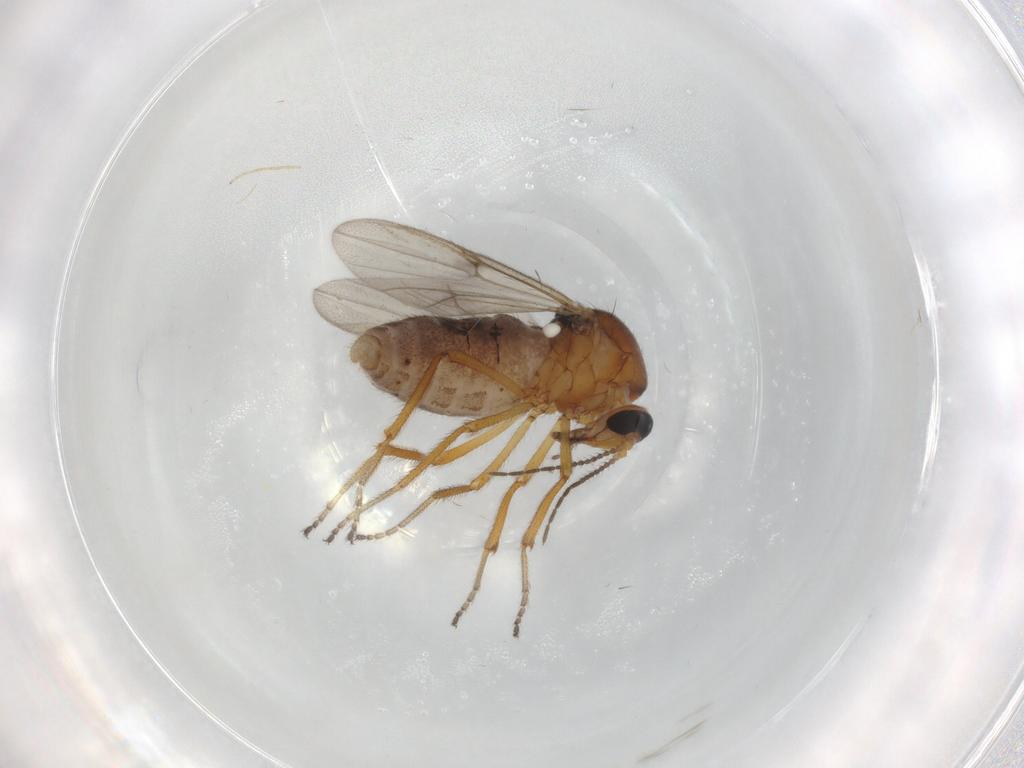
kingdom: Animalia
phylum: Arthropoda
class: Insecta
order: Diptera
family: Ceratopogonidae
